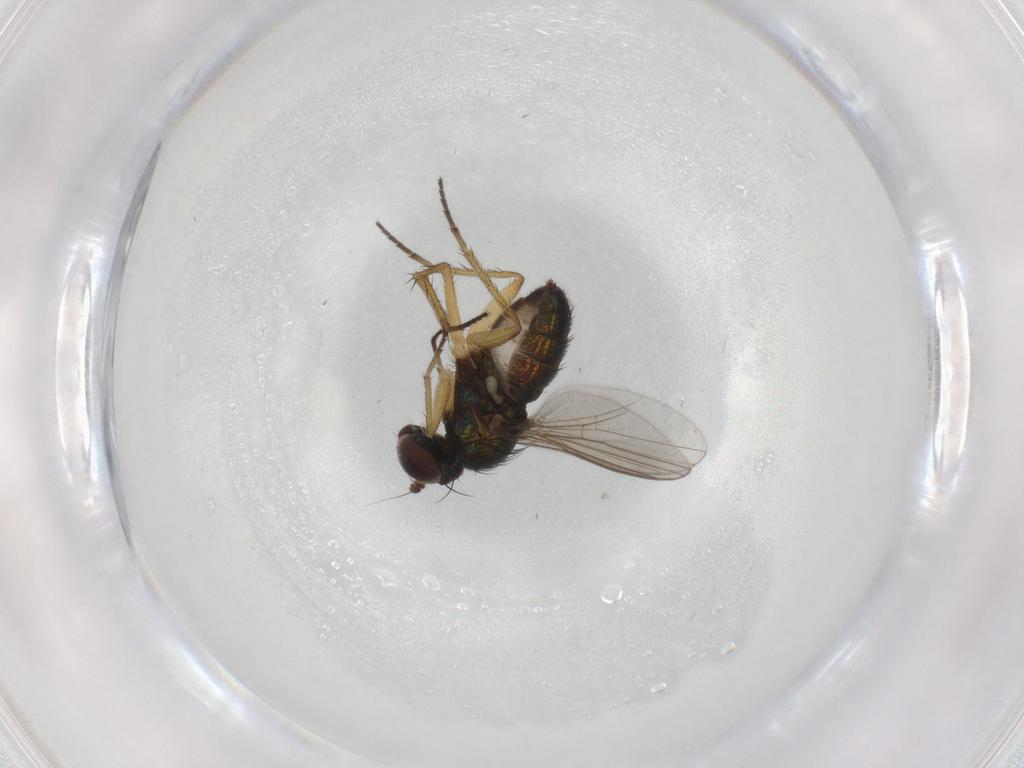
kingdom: Animalia
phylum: Arthropoda
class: Insecta
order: Diptera
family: Dolichopodidae
